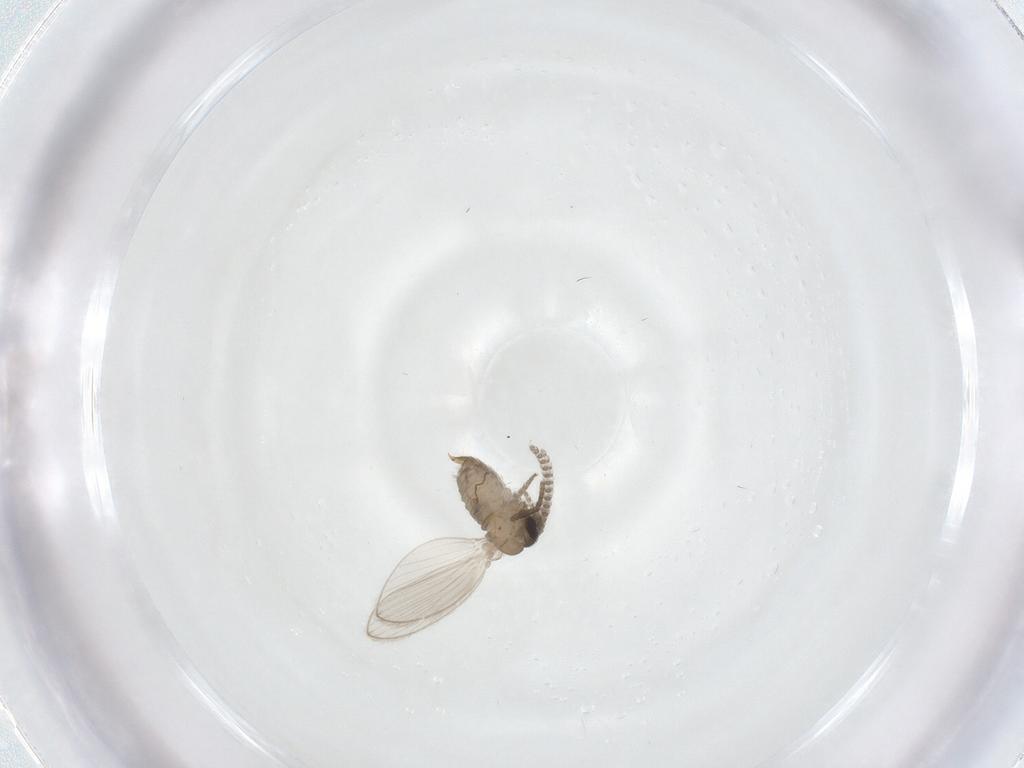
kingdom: Animalia
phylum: Arthropoda
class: Insecta
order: Diptera
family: Psychodidae
